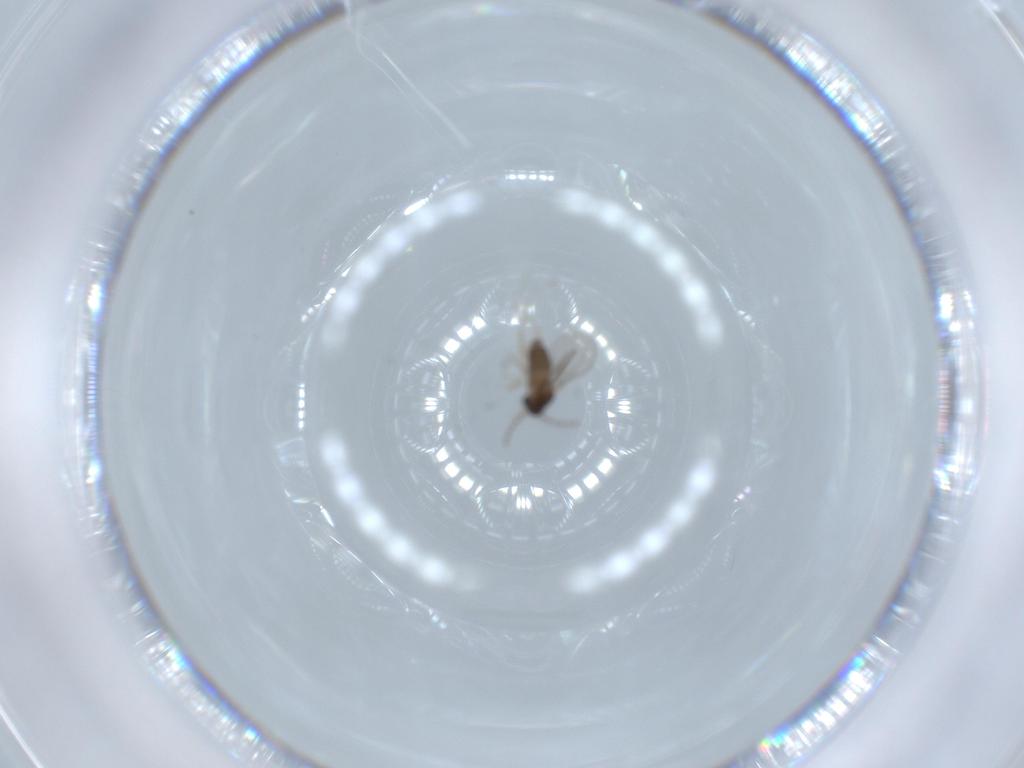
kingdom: Animalia
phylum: Arthropoda
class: Insecta
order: Diptera
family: Cecidomyiidae
